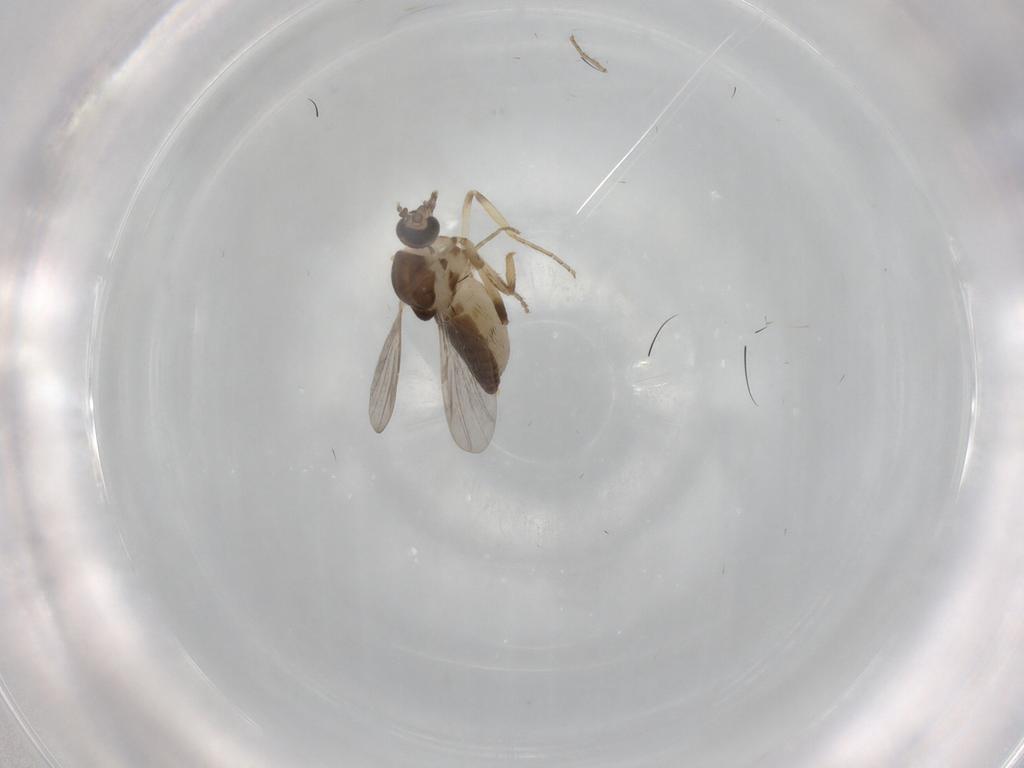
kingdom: Animalia
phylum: Arthropoda
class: Insecta
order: Diptera
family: Ceratopogonidae
